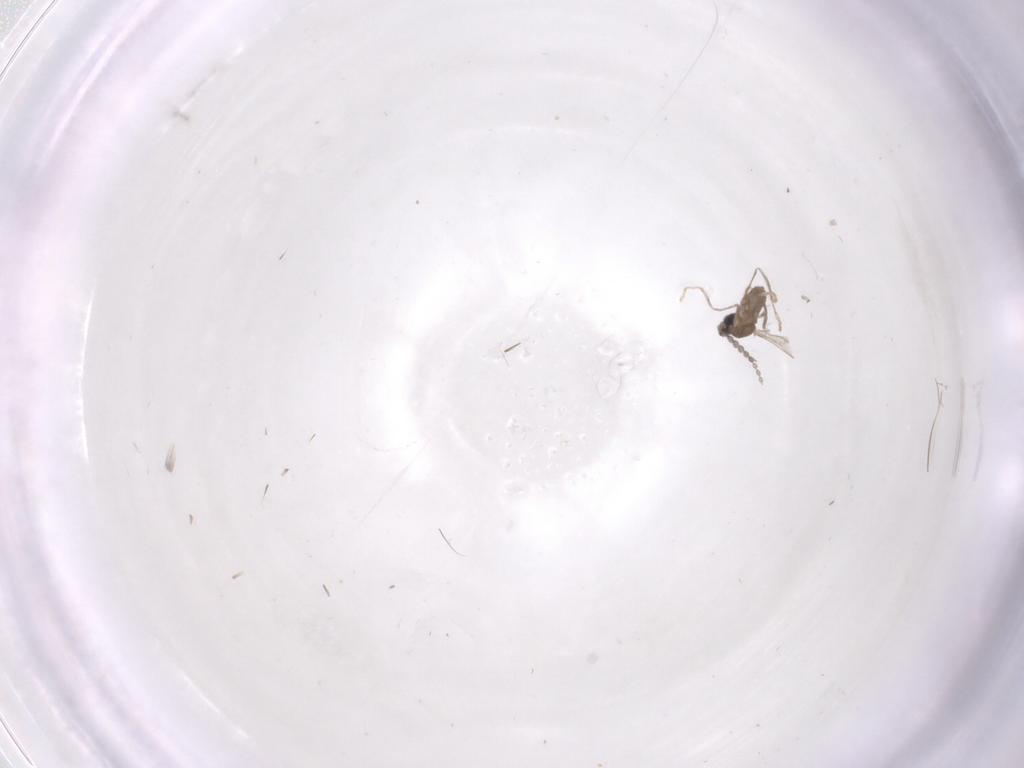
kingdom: Animalia
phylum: Arthropoda
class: Insecta
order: Diptera
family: Cecidomyiidae
